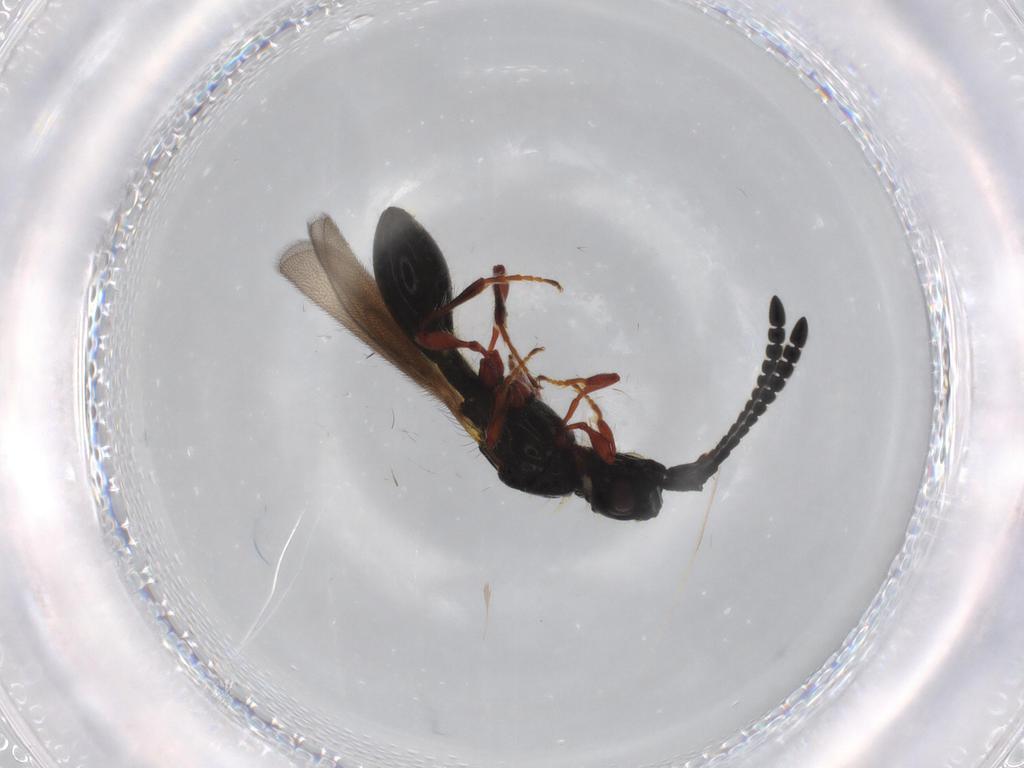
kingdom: Animalia
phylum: Arthropoda
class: Insecta
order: Hymenoptera
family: Diapriidae
